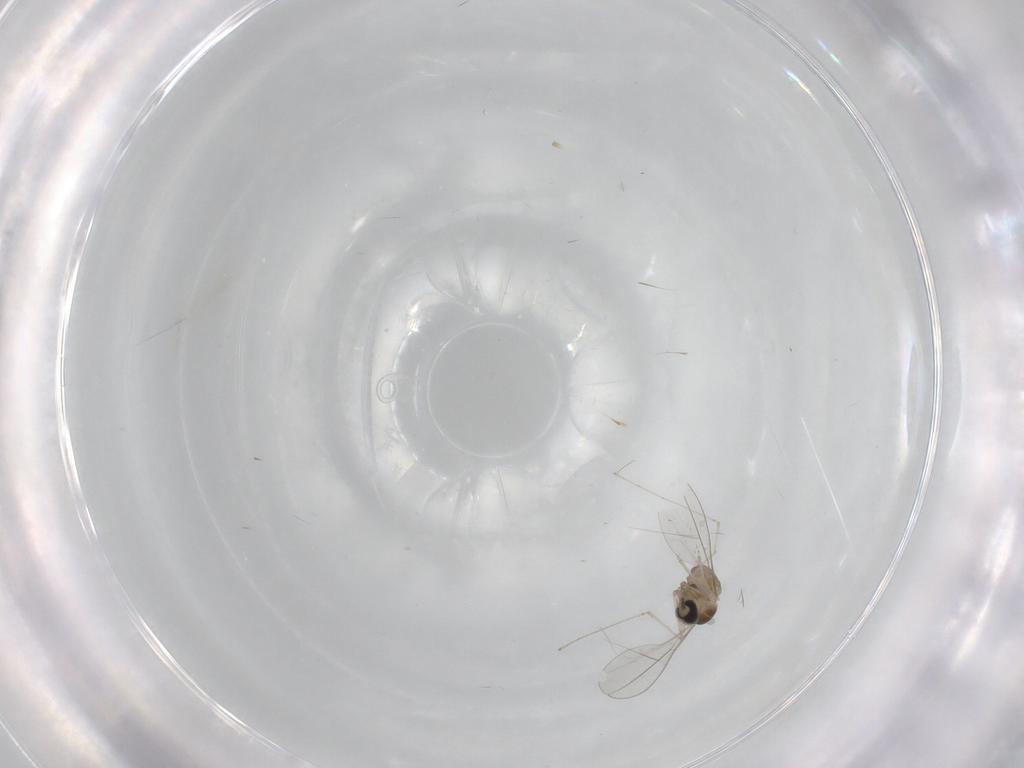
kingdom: Animalia
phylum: Arthropoda
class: Insecta
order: Diptera
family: Cecidomyiidae
